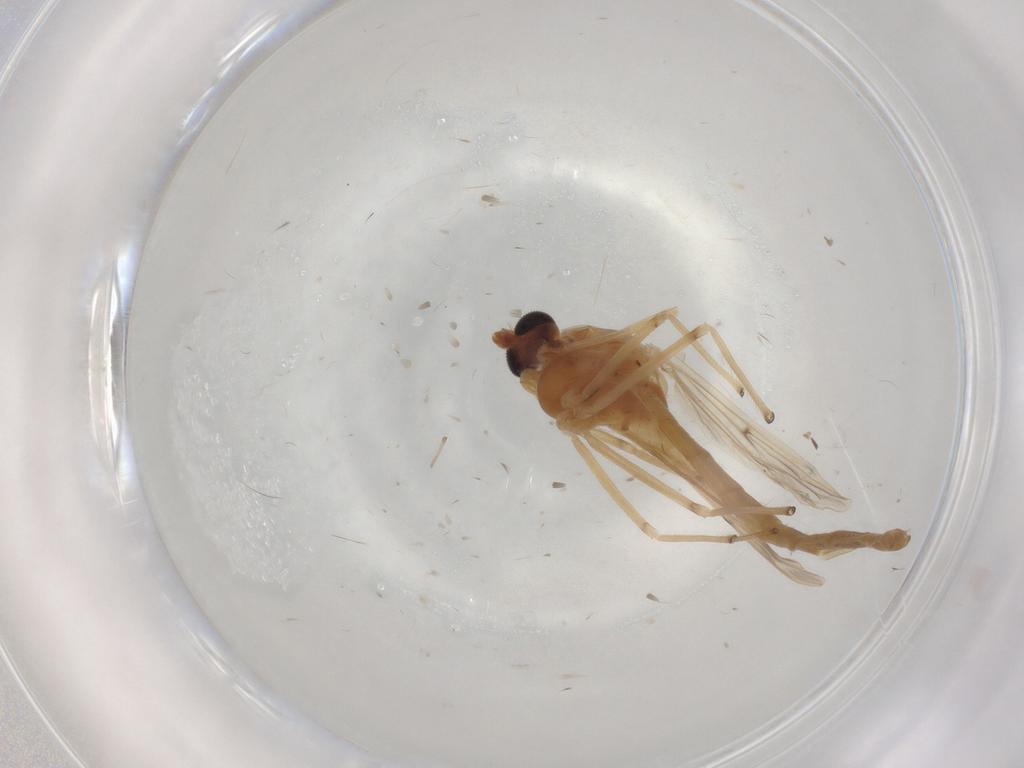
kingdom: Animalia
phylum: Arthropoda
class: Insecta
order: Diptera
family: Chironomidae
